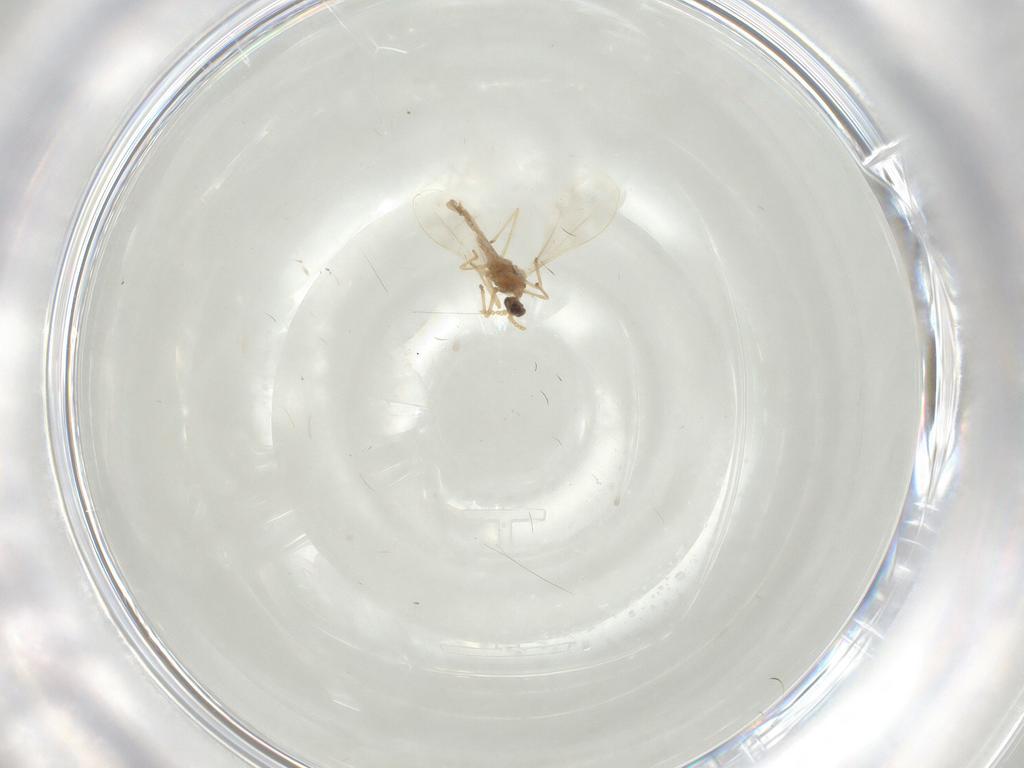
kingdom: Animalia
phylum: Arthropoda
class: Insecta
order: Diptera
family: Cecidomyiidae
